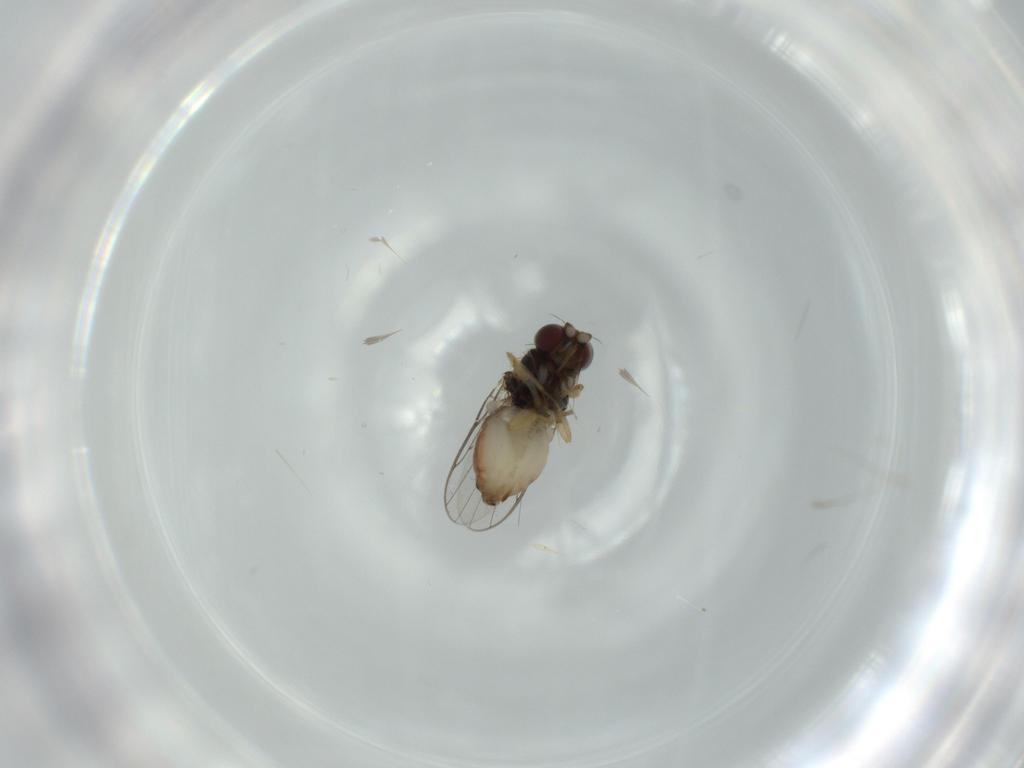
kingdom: Animalia
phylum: Arthropoda
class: Insecta
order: Diptera
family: Chloropidae
